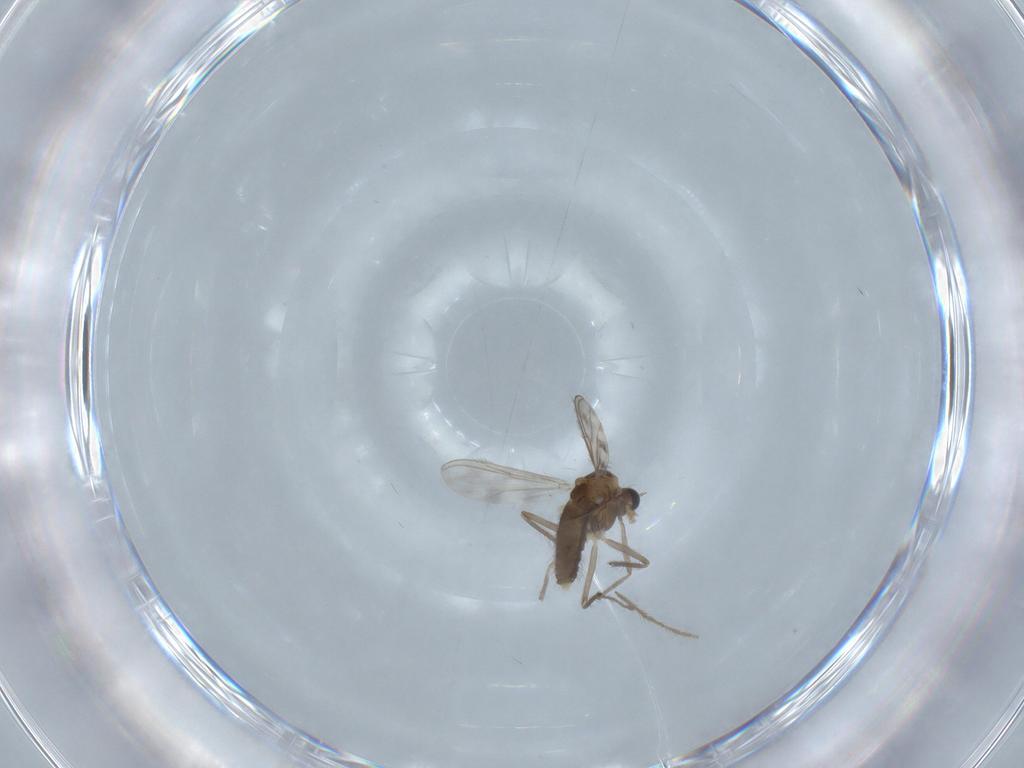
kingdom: Animalia
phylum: Arthropoda
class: Insecta
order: Diptera
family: Chironomidae
